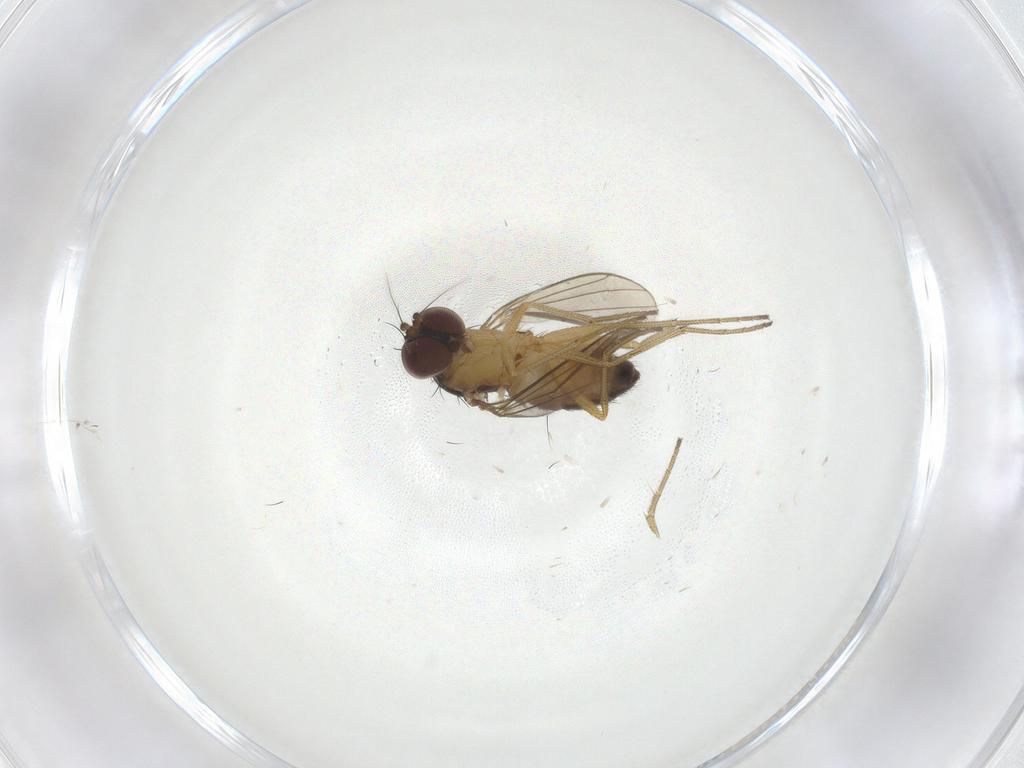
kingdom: Animalia
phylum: Arthropoda
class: Insecta
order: Diptera
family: Dolichopodidae
